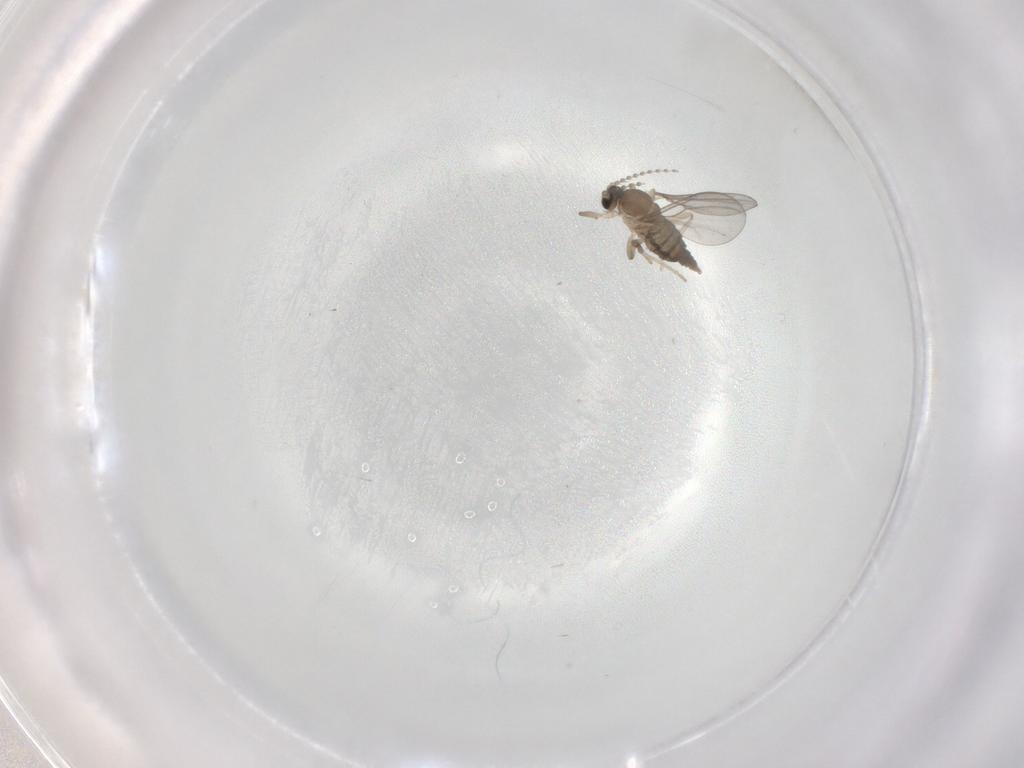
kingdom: Animalia
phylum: Arthropoda
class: Insecta
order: Diptera
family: Cecidomyiidae
